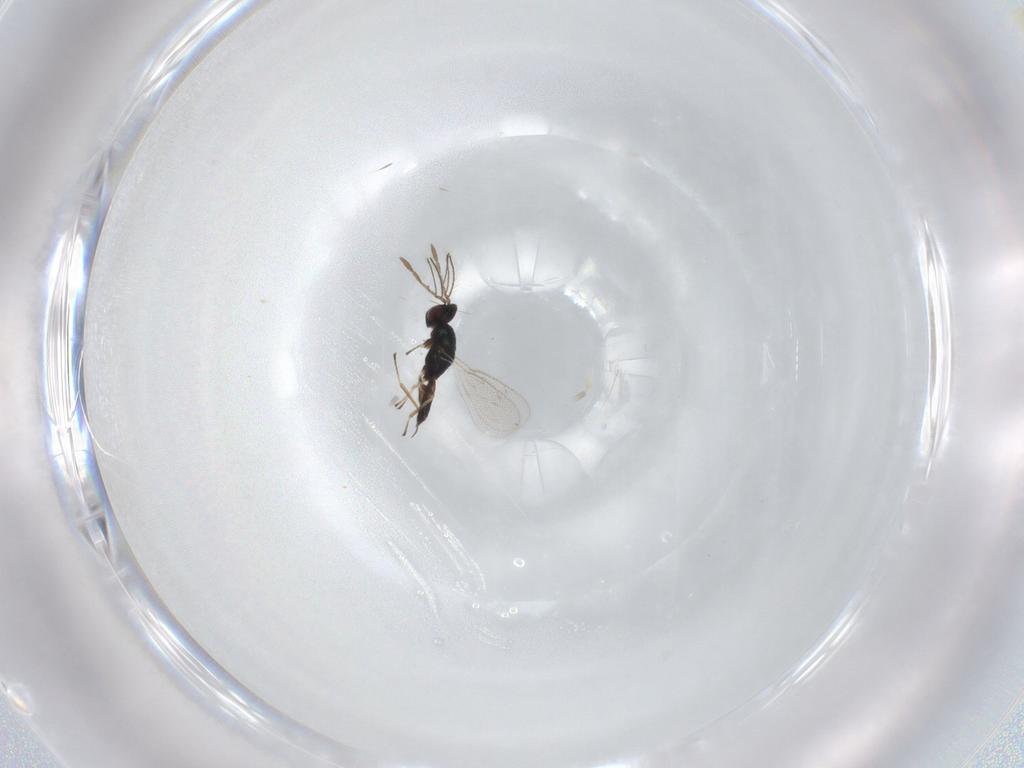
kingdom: Animalia
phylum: Arthropoda
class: Insecta
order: Hymenoptera
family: Eulophidae
